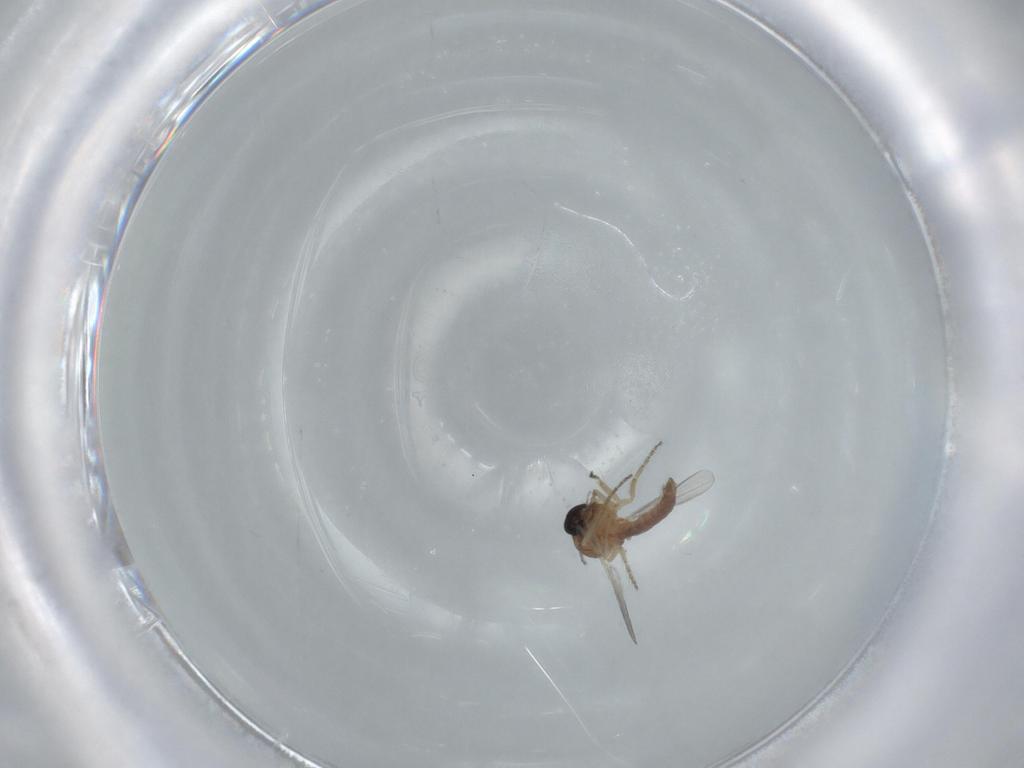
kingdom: Animalia
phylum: Arthropoda
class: Insecta
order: Diptera
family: Ceratopogonidae
